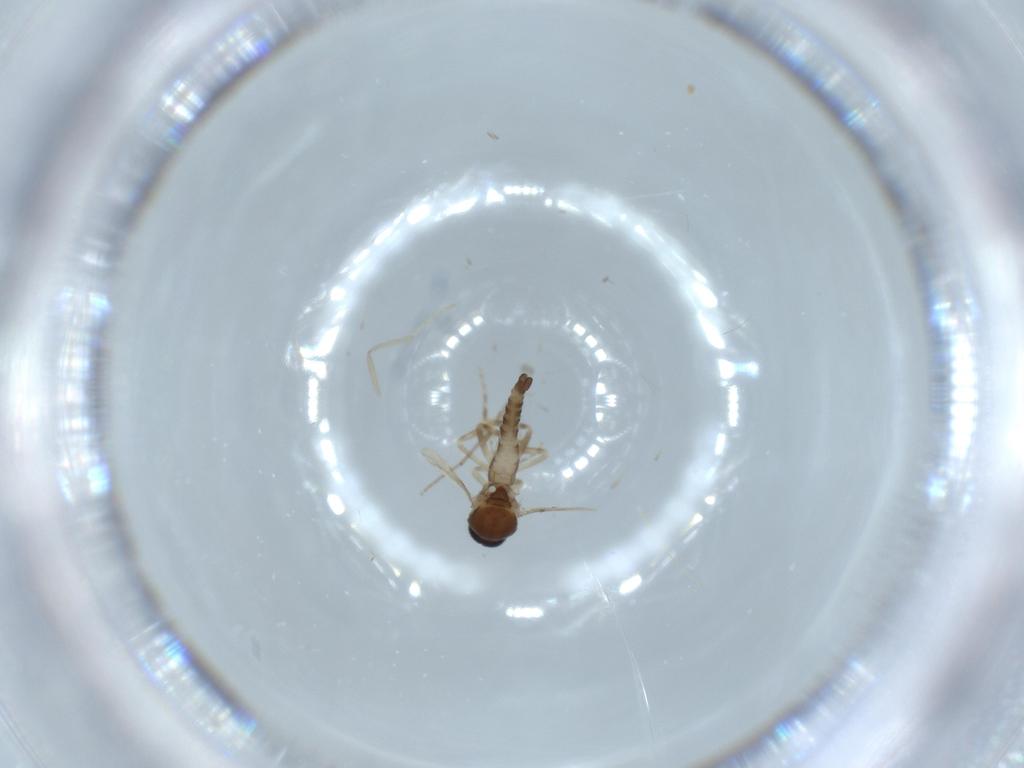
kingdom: Animalia
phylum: Arthropoda
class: Insecta
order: Diptera
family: Ceratopogonidae
